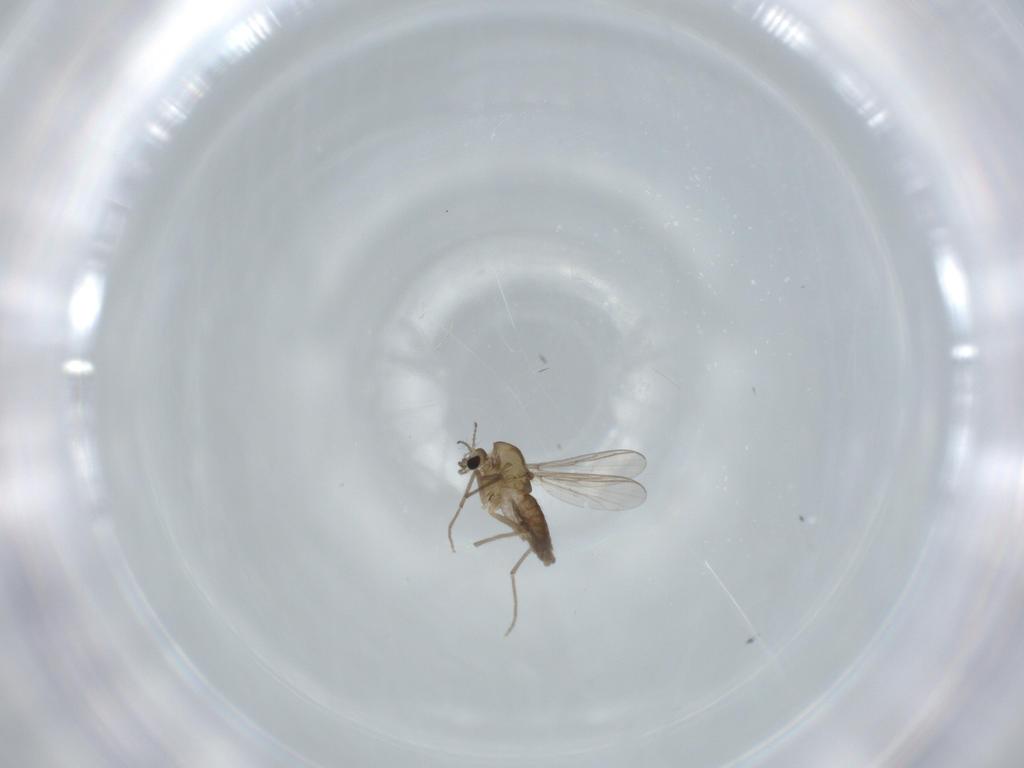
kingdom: Animalia
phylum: Arthropoda
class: Insecta
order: Diptera
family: Chironomidae
